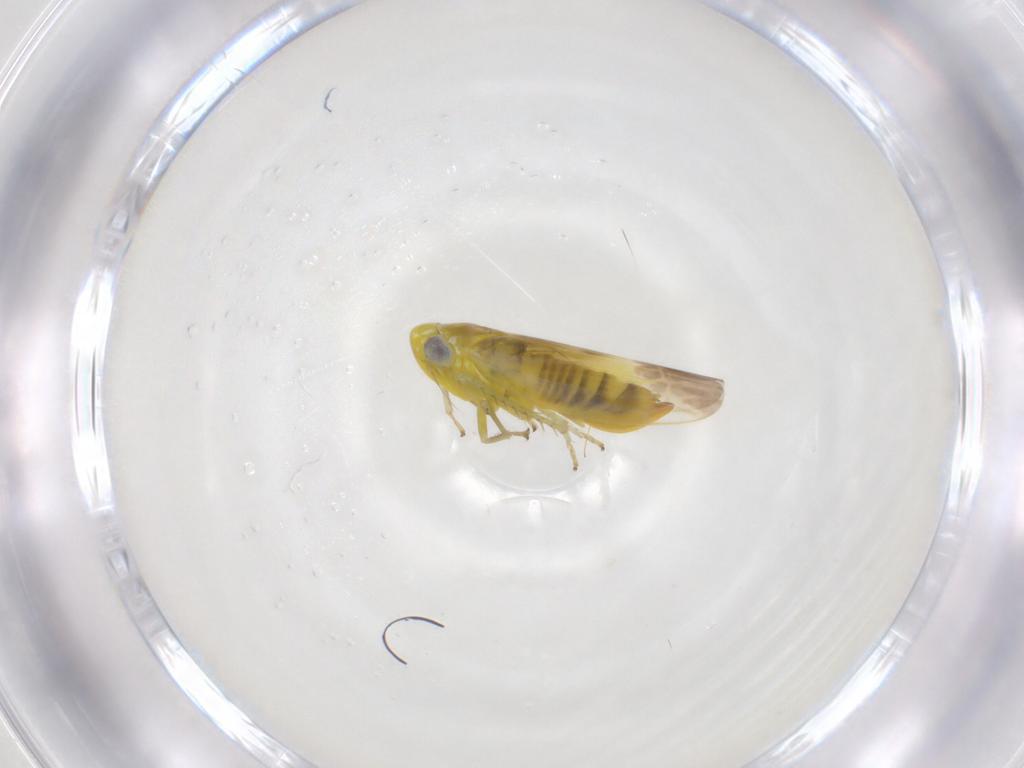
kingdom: Animalia
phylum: Arthropoda
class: Insecta
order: Hemiptera
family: Cicadellidae
